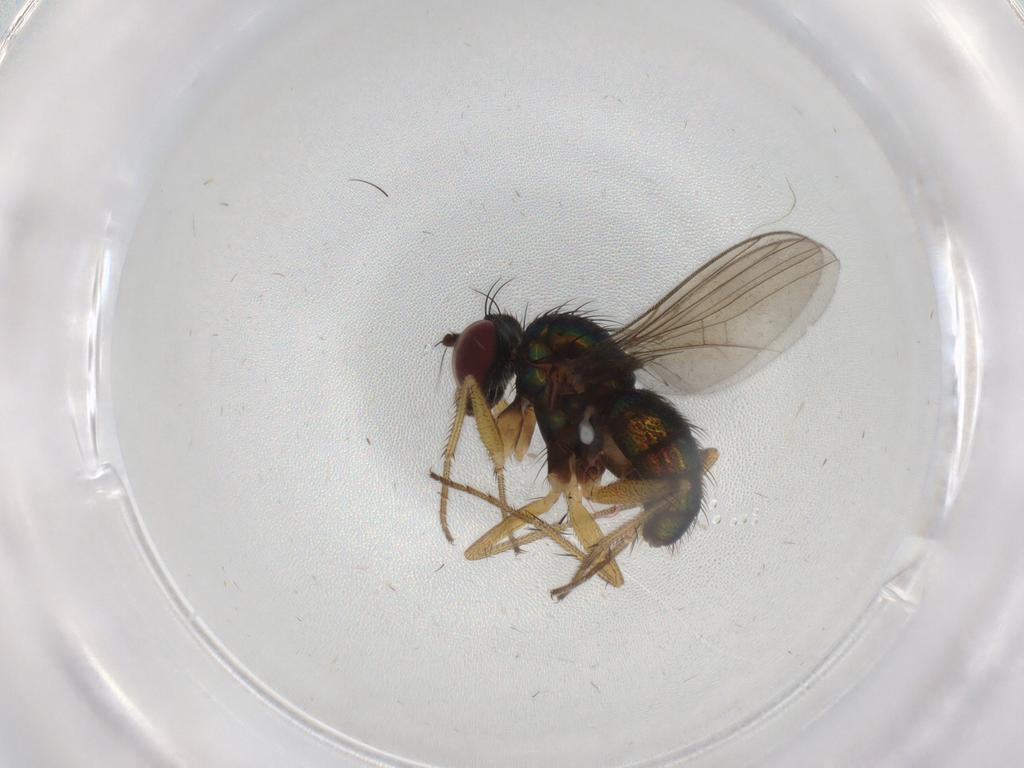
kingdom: Animalia
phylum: Arthropoda
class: Insecta
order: Diptera
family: Dolichopodidae
